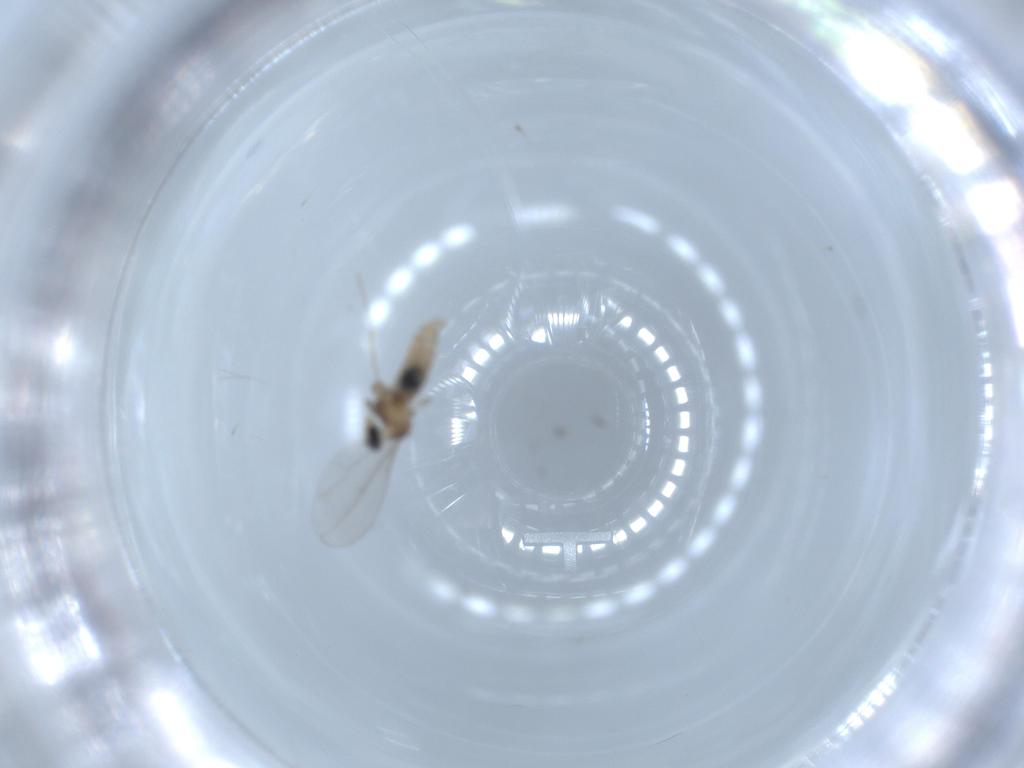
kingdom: Animalia
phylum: Arthropoda
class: Insecta
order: Diptera
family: Cecidomyiidae
